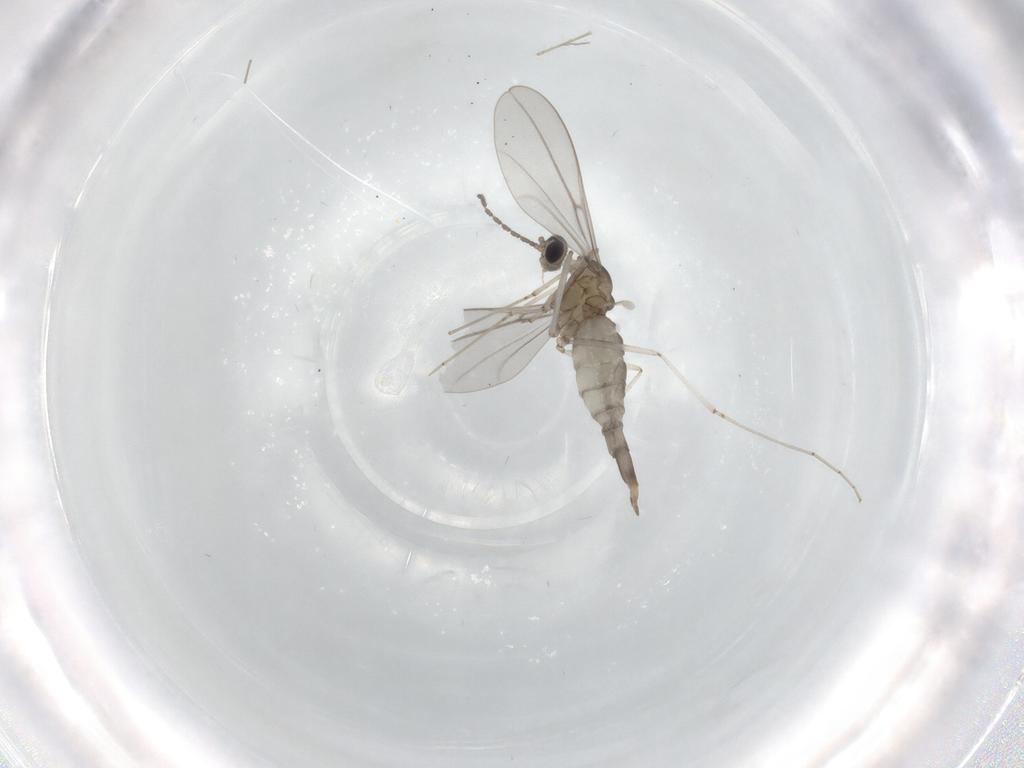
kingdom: Animalia
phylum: Arthropoda
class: Insecta
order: Diptera
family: Cecidomyiidae
